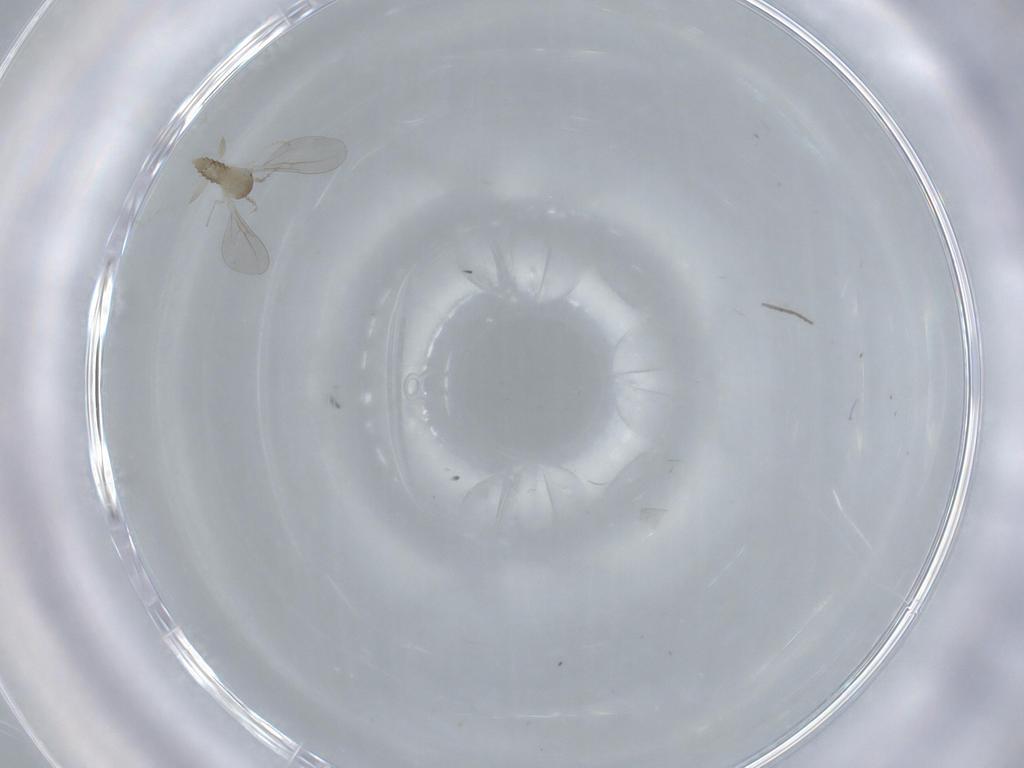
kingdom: Animalia
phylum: Arthropoda
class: Insecta
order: Diptera
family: Cecidomyiidae
